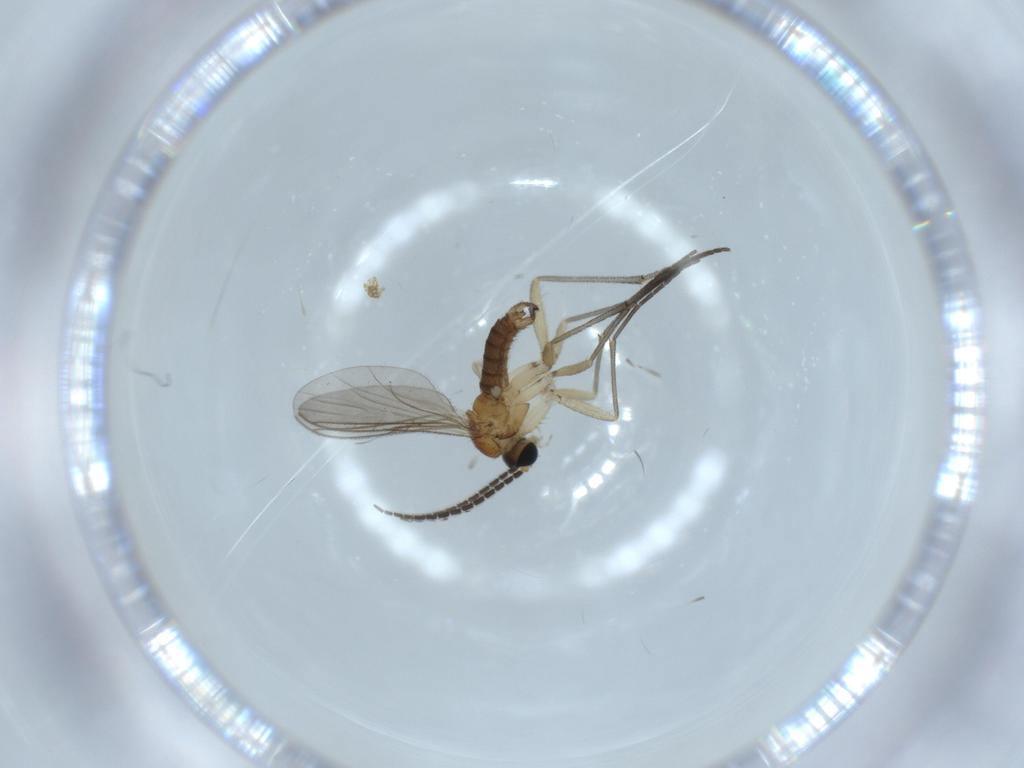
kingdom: Animalia
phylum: Arthropoda
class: Insecta
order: Diptera
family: Sciaridae
